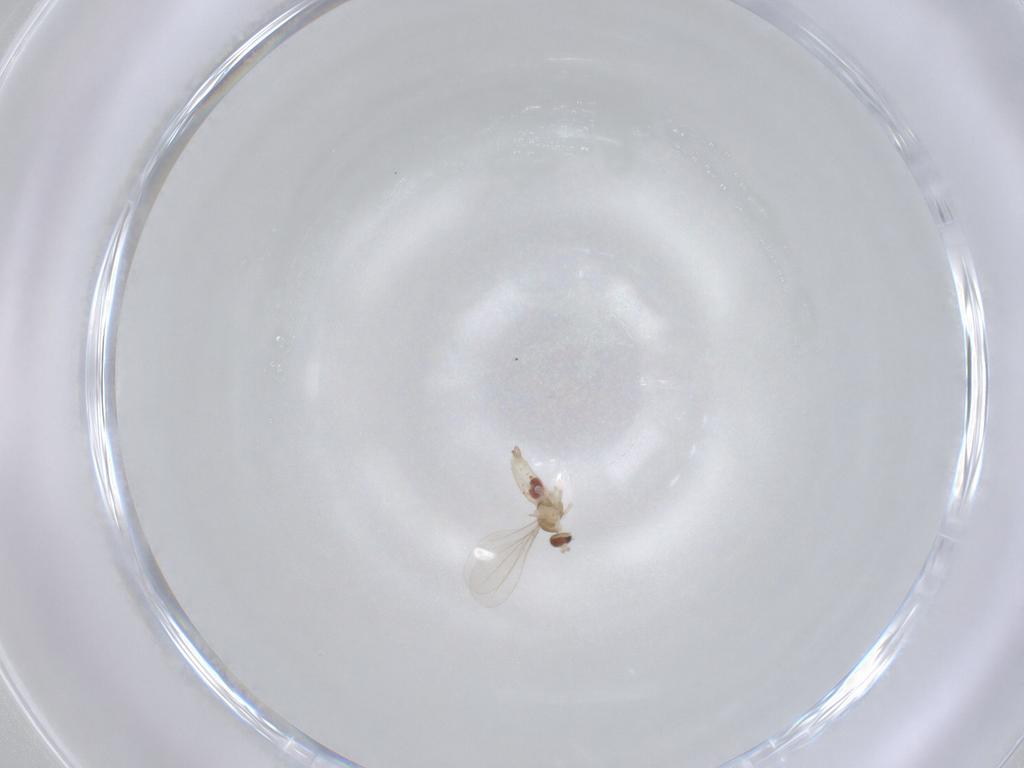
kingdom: Animalia
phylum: Arthropoda
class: Insecta
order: Diptera
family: Cecidomyiidae
